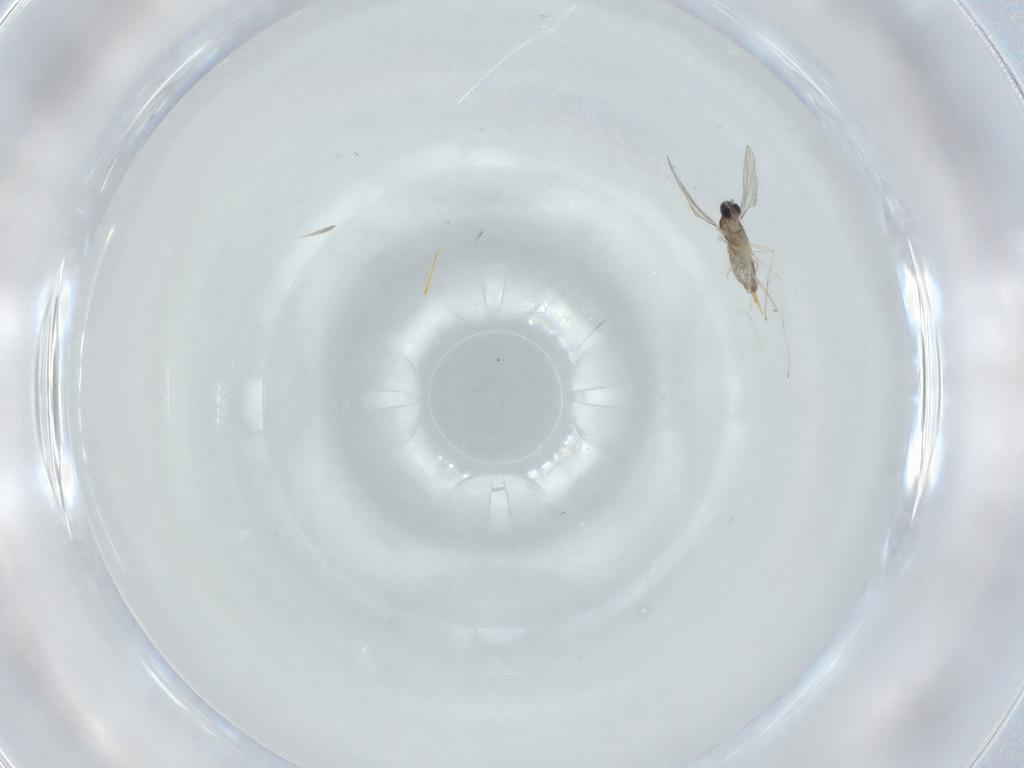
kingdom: Animalia
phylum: Arthropoda
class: Insecta
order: Diptera
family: Cecidomyiidae
